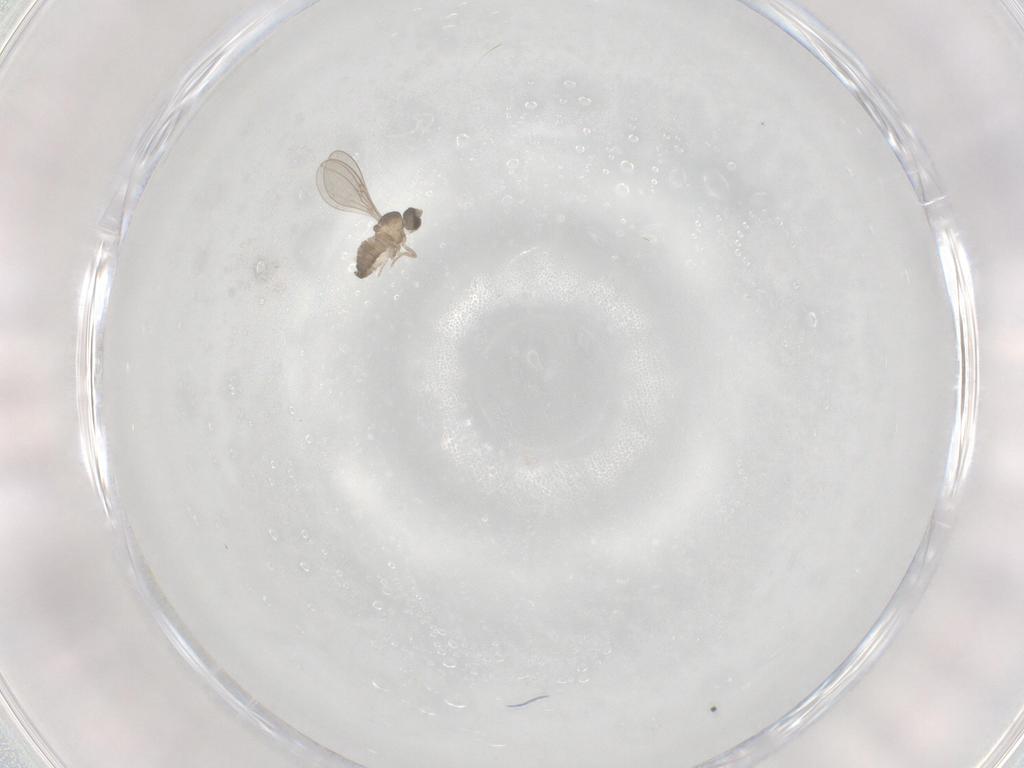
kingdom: Animalia
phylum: Arthropoda
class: Insecta
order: Diptera
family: Cecidomyiidae
